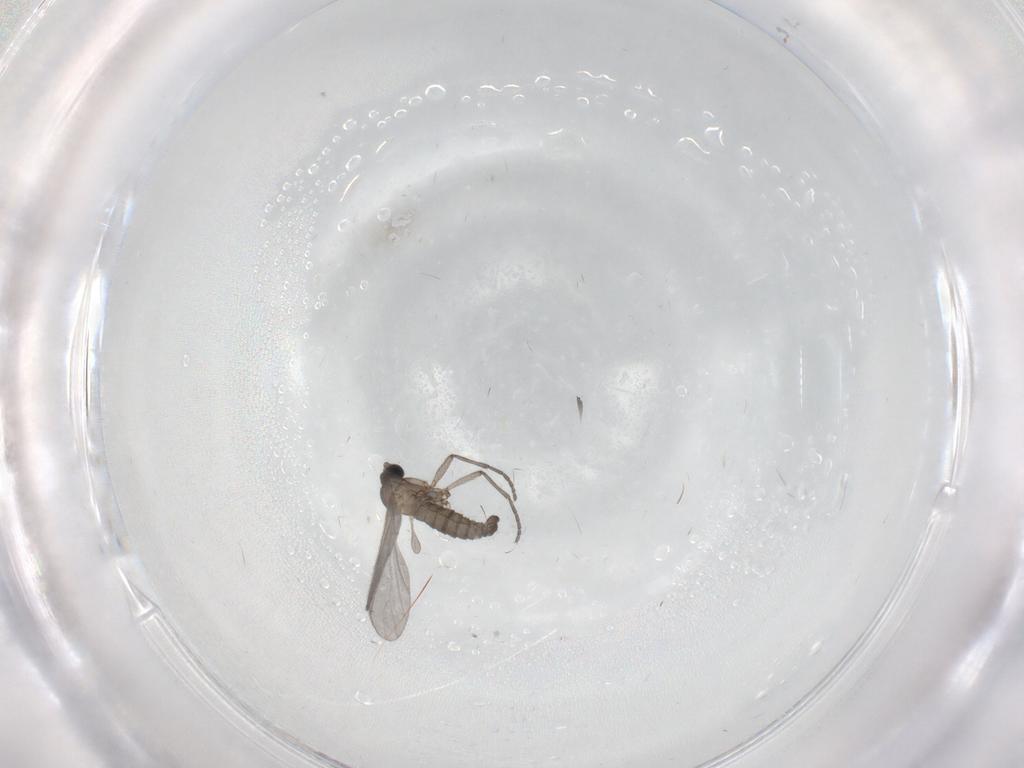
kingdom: Animalia
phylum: Arthropoda
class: Insecta
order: Diptera
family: Sciaridae
